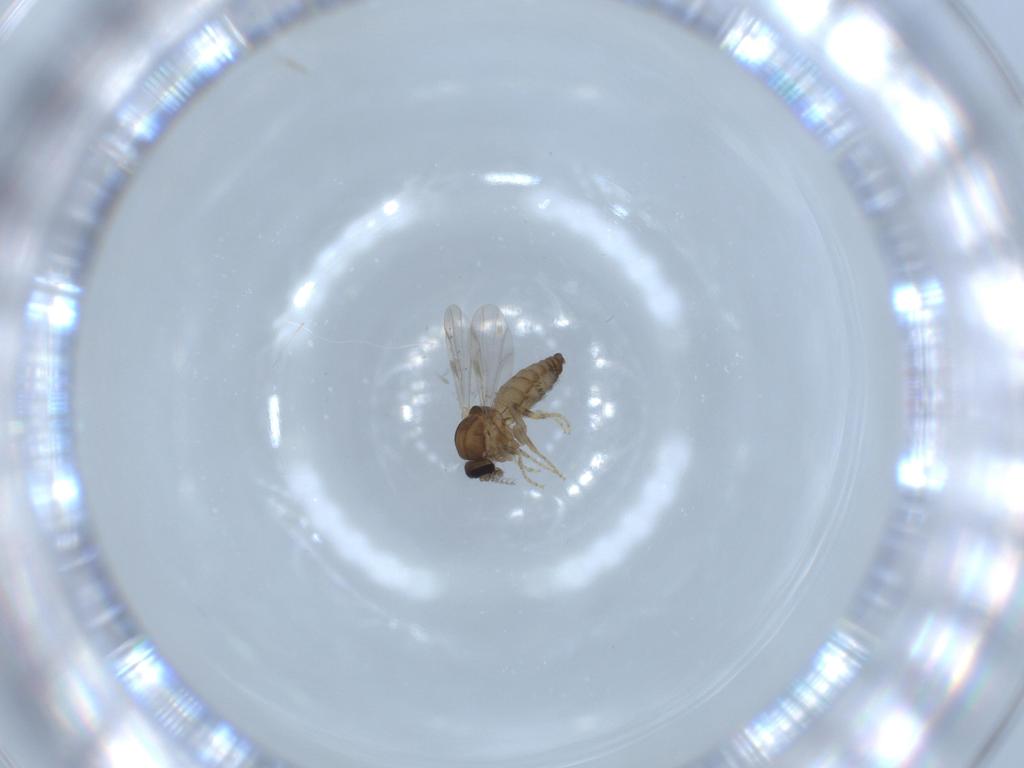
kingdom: Animalia
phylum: Arthropoda
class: Insecta
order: Diptera
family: Ceratopogonidae
